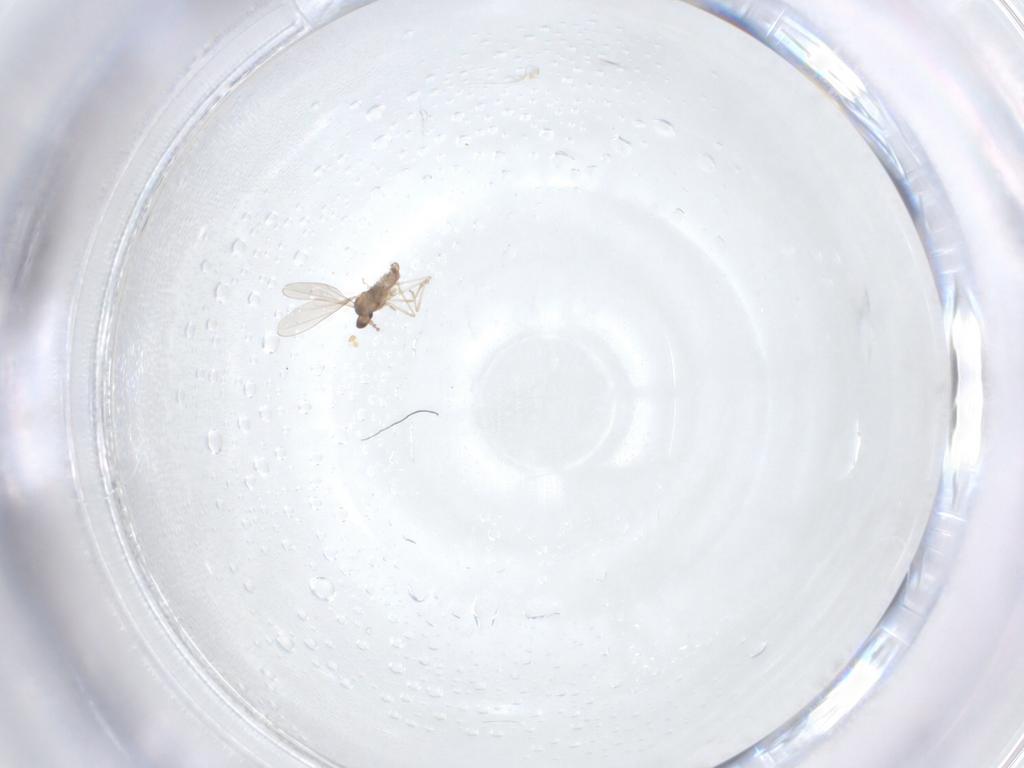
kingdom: Animalia
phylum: Arthropoda
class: Insecta
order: Diptera
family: Cecidomyiidae
